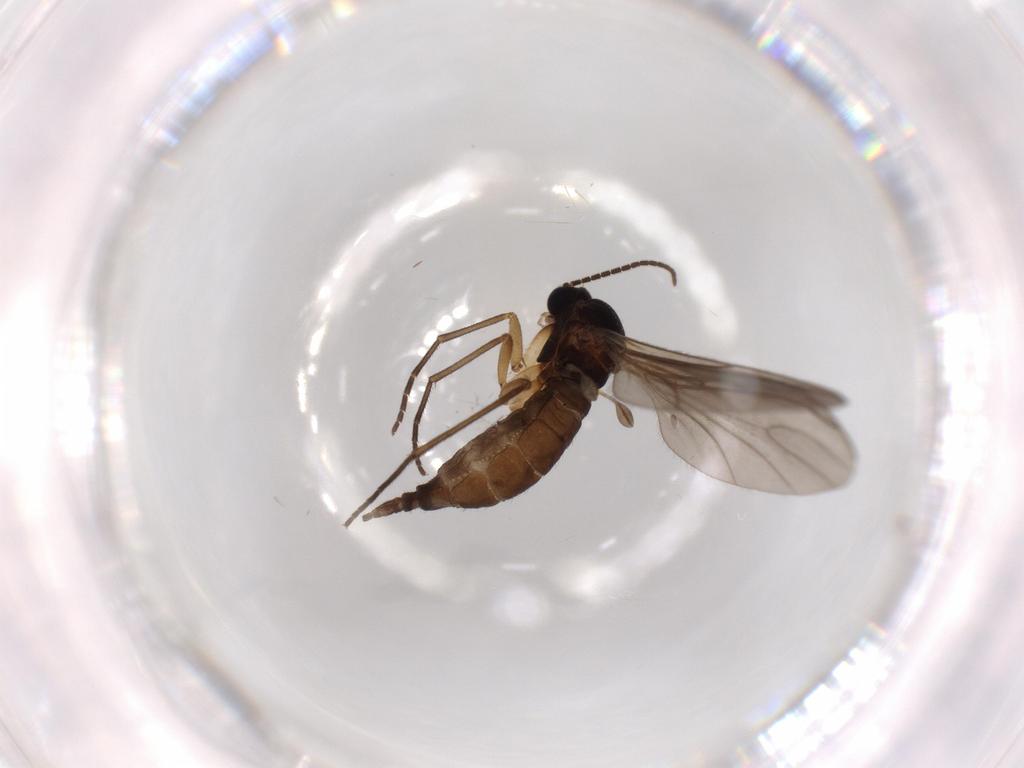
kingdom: Animalia
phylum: Arthropoda
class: Insecta
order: Diptera
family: Sciaridae
